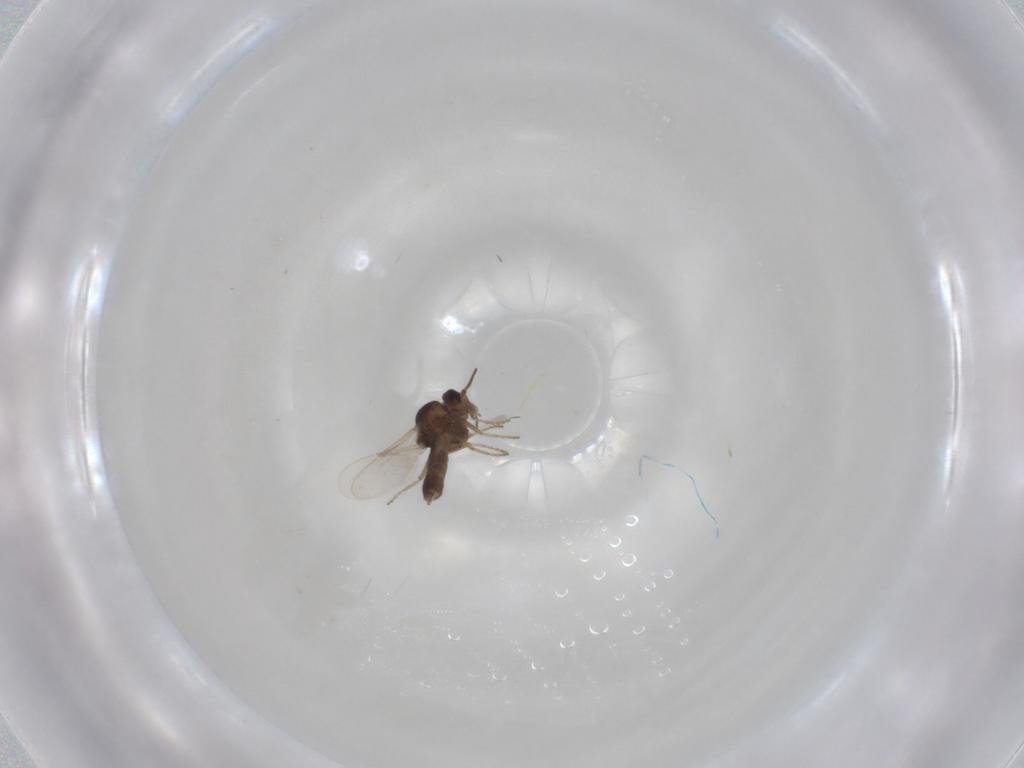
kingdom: Animalia
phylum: Arthropoda
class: Insecta
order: Diptera
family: Ceratopogonidae
